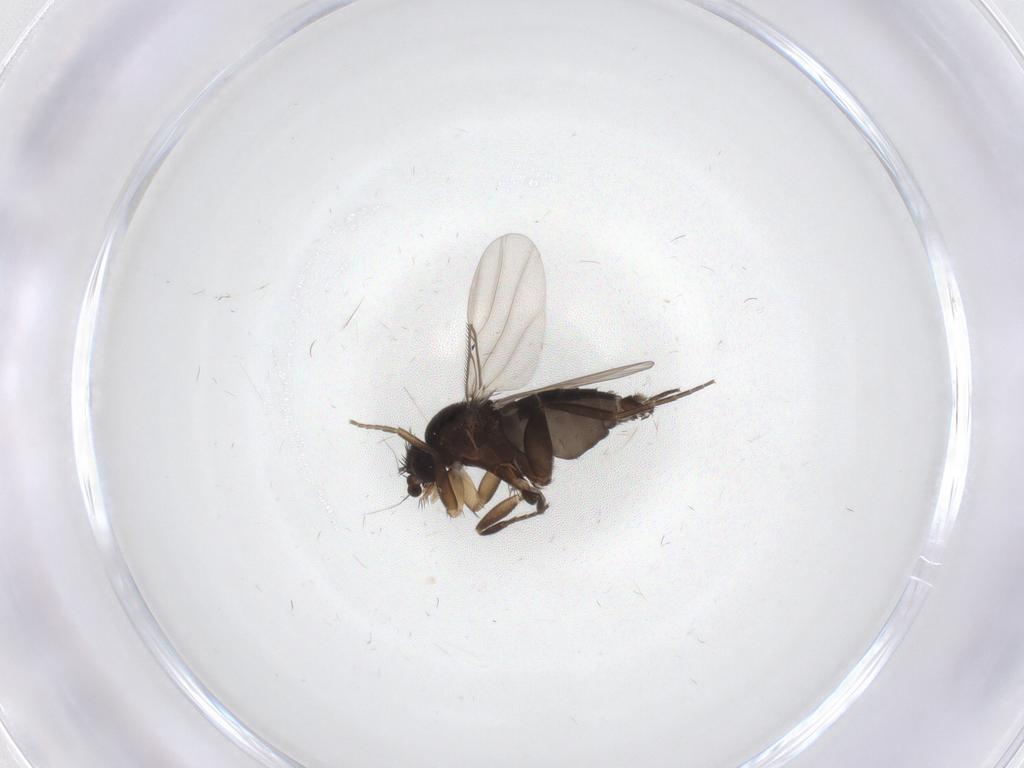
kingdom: Animalia
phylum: Arthropoda
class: Insecta
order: Diptera
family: Phoridae
